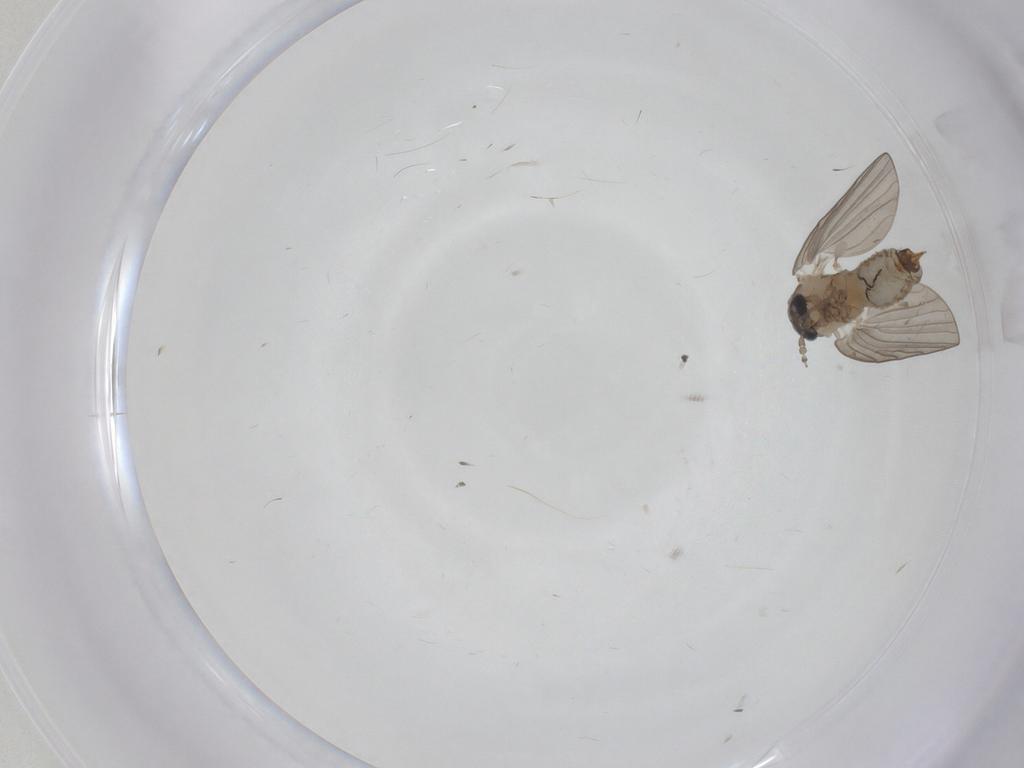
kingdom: Animalia
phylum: Arthropoda
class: Insecta
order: Diptera
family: Psychodidae
